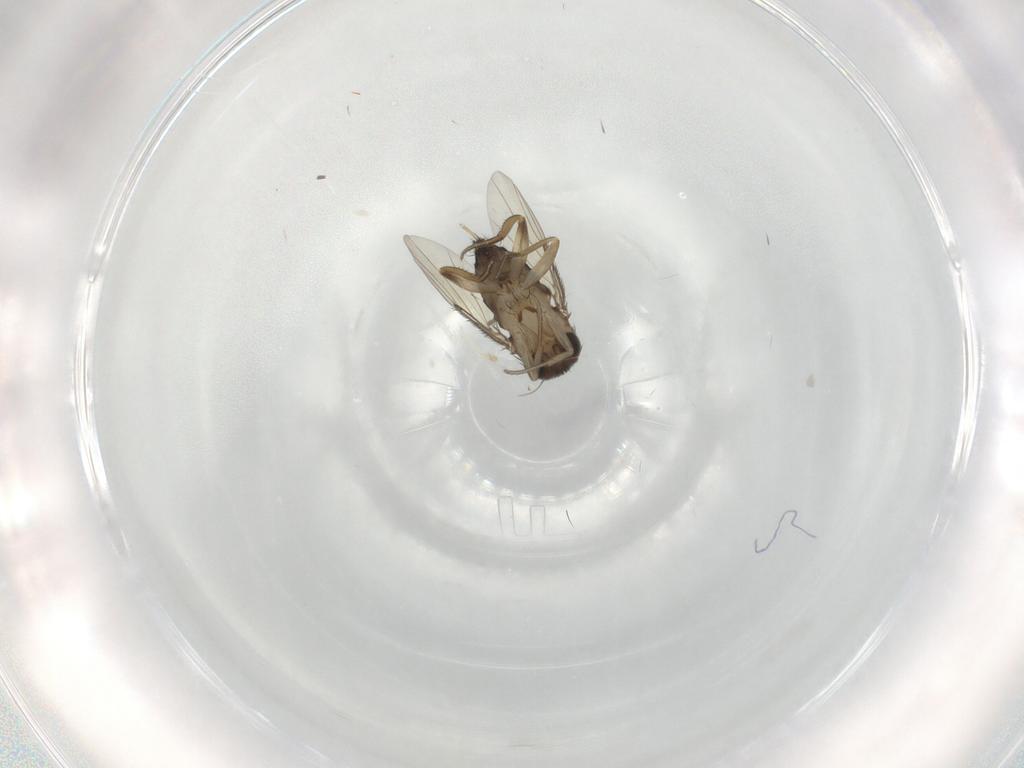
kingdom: Animalia
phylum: Arthropoda
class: Insecta
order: Diptera
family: Phoridae
